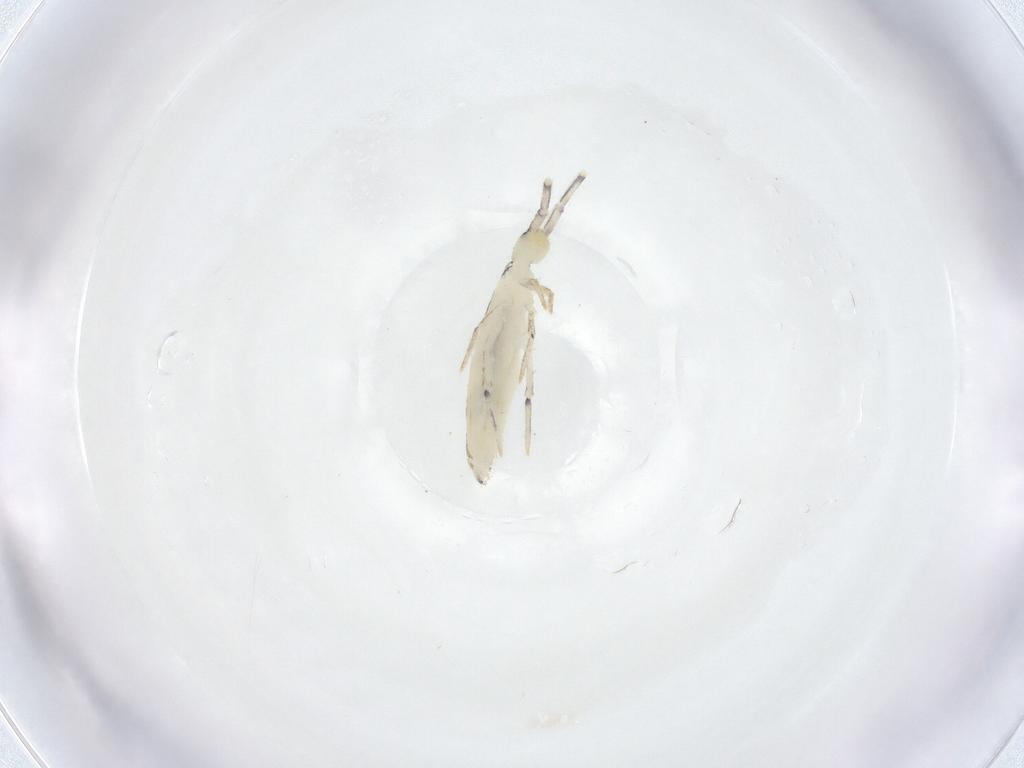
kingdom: Animalia
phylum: Arthropoda
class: Collembola
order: Entomobryomorpha
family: Entomobryidae
